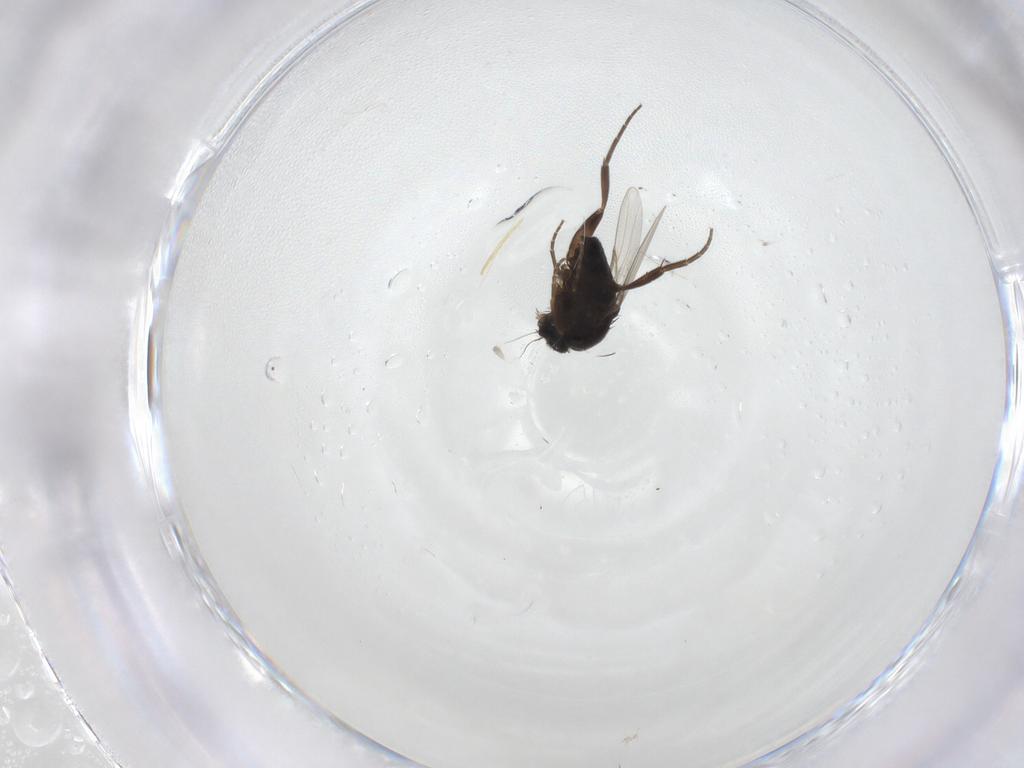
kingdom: Animalia
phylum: Arthropoda
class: Insecta
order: Diptera
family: Phoridae
